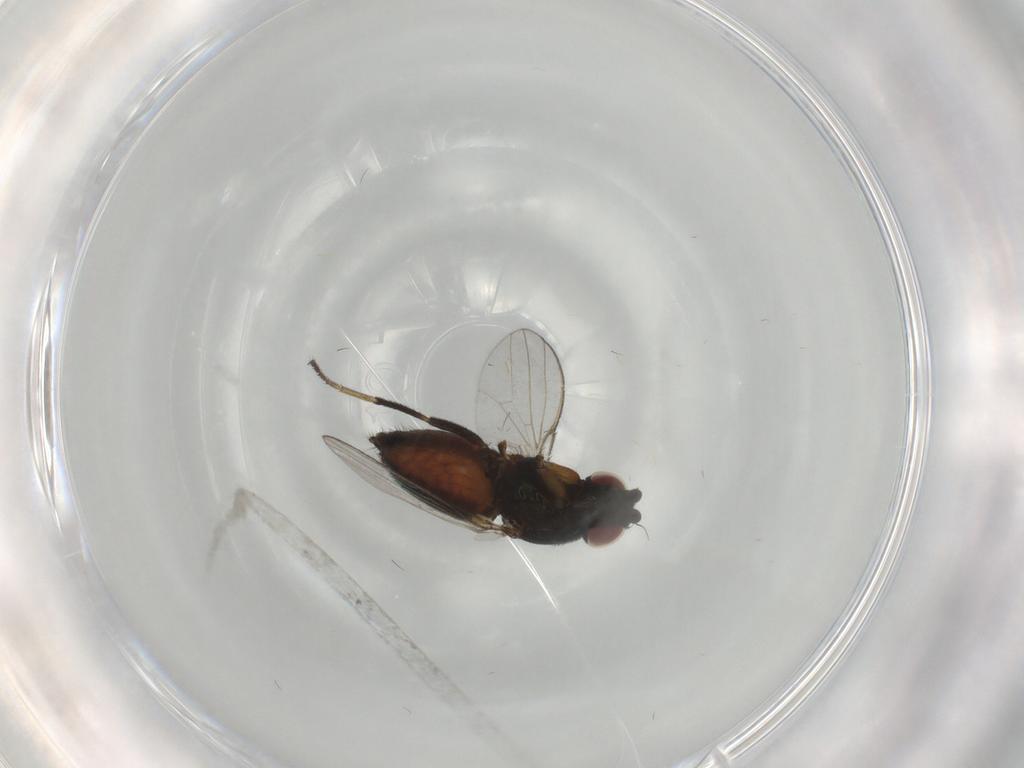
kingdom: Animalia
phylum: Arthropoda
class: Insecta
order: Diptera
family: Milichiidae
